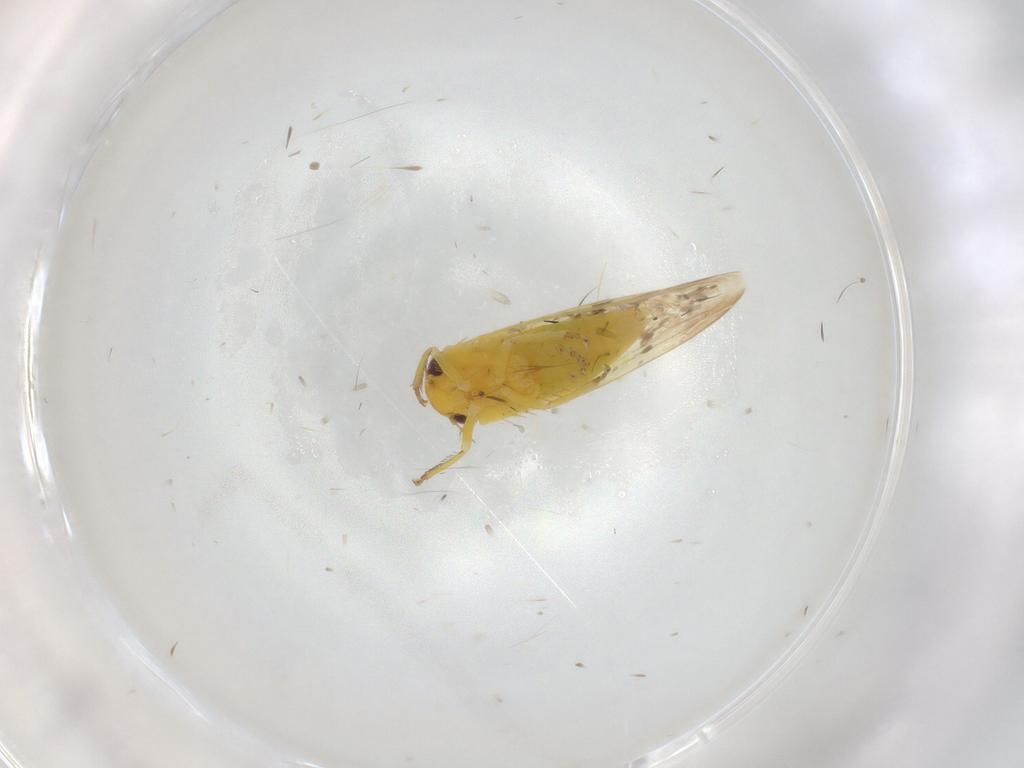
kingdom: Animalia
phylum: Arthropoda
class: Insecta
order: Hemiptera
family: Cicadellidae
